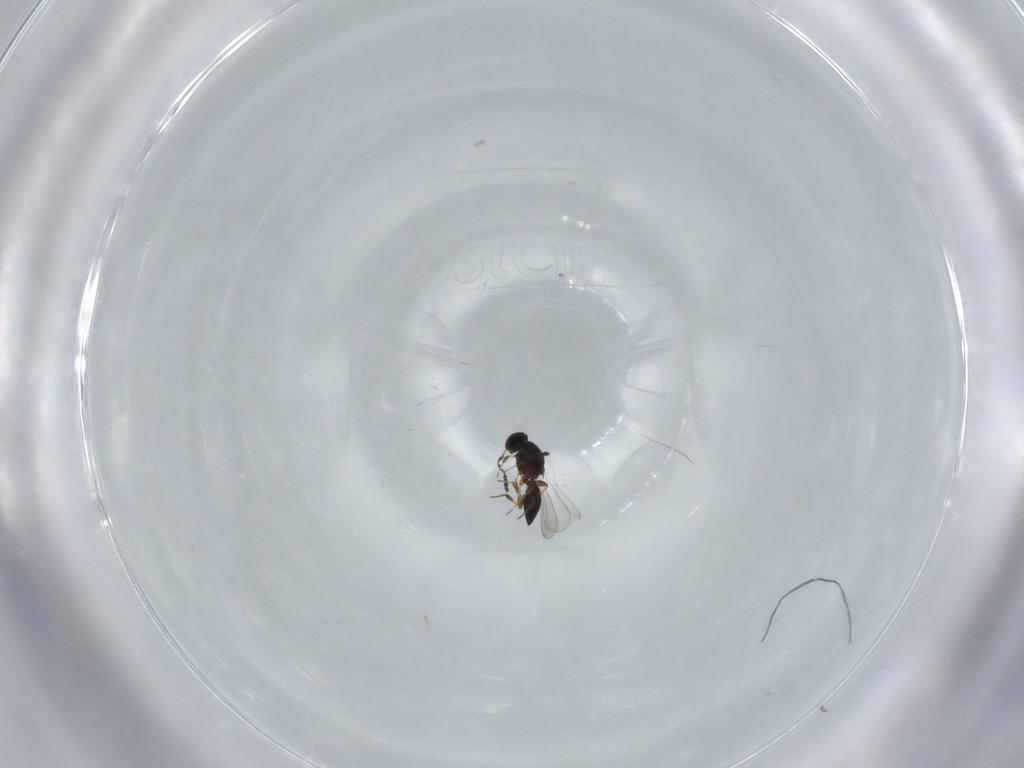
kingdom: Animalia
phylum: Arthropoda
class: Insecta
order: Hymenoptera
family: Platygastridae
